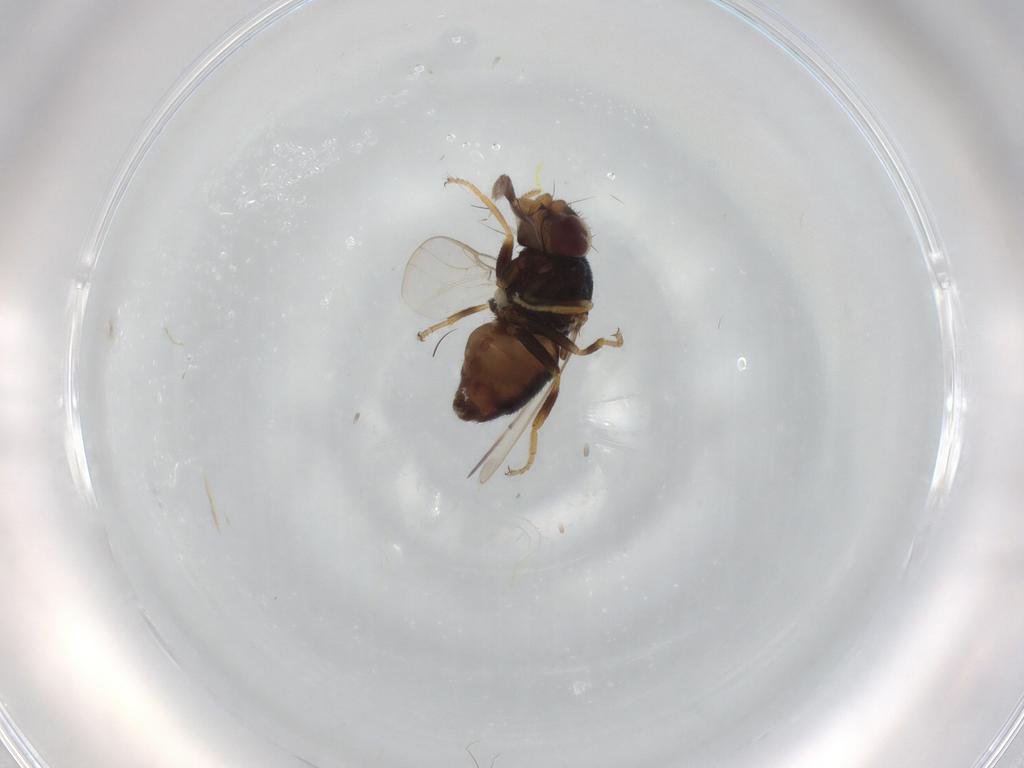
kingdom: Animalia
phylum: Arthropoda
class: Insecta
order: Diptera
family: Chloropidae
